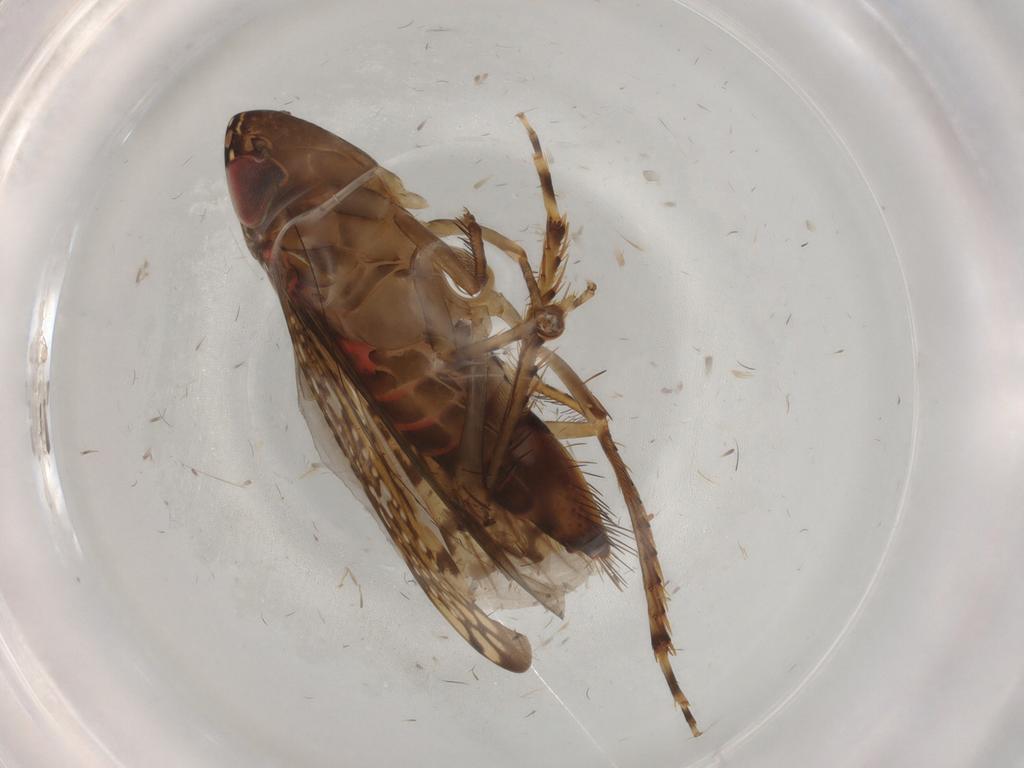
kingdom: Animalia
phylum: Arthropoda
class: Insecta
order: Hemiptera
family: Cicadellidae
